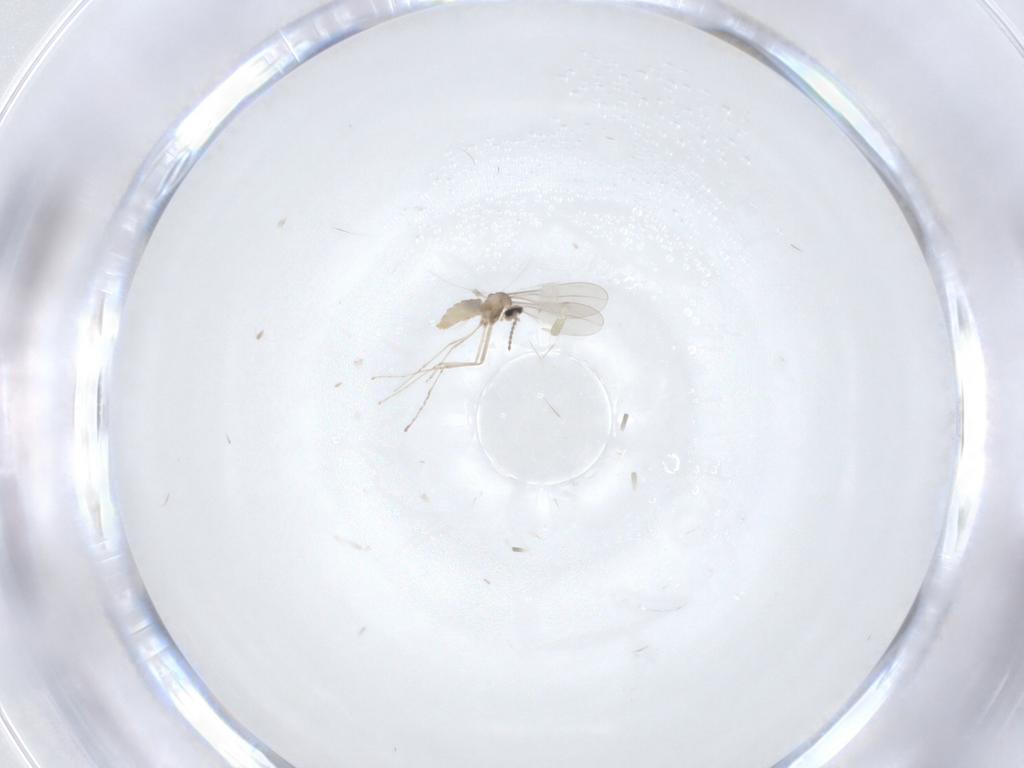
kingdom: Animalia
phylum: Arthropoda
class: Insecta
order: Diptera
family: Cecidomyiidae
